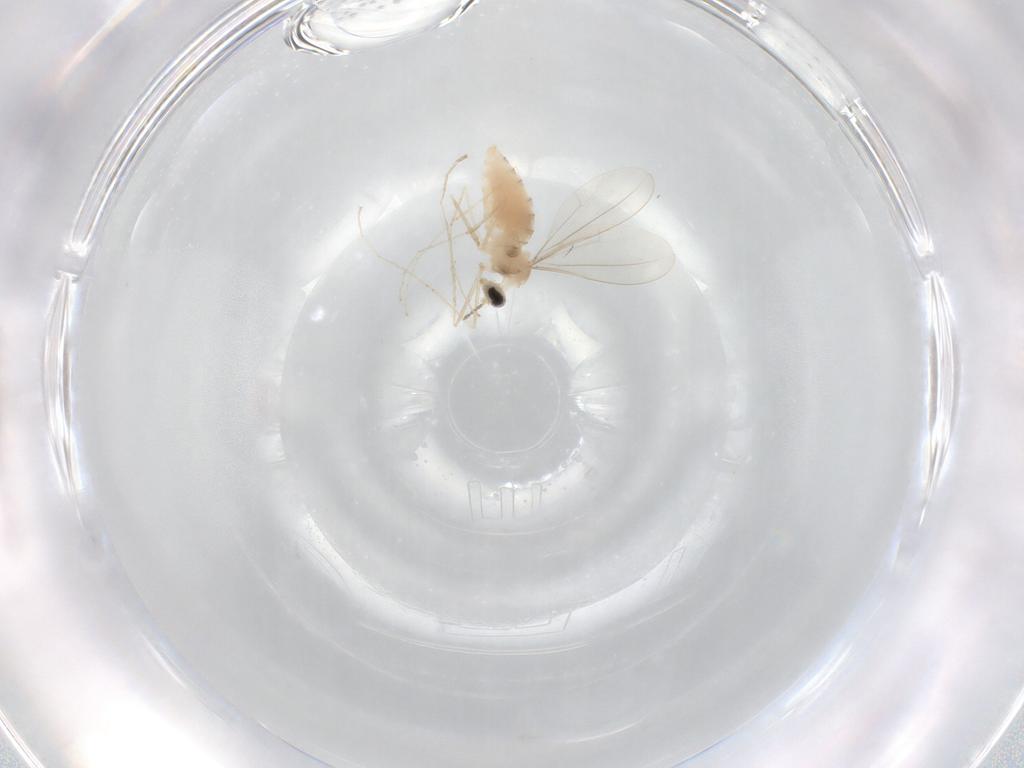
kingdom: Animalia
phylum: Arthropoda
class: Insecta
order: Diptera
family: Cecidomyiidae
